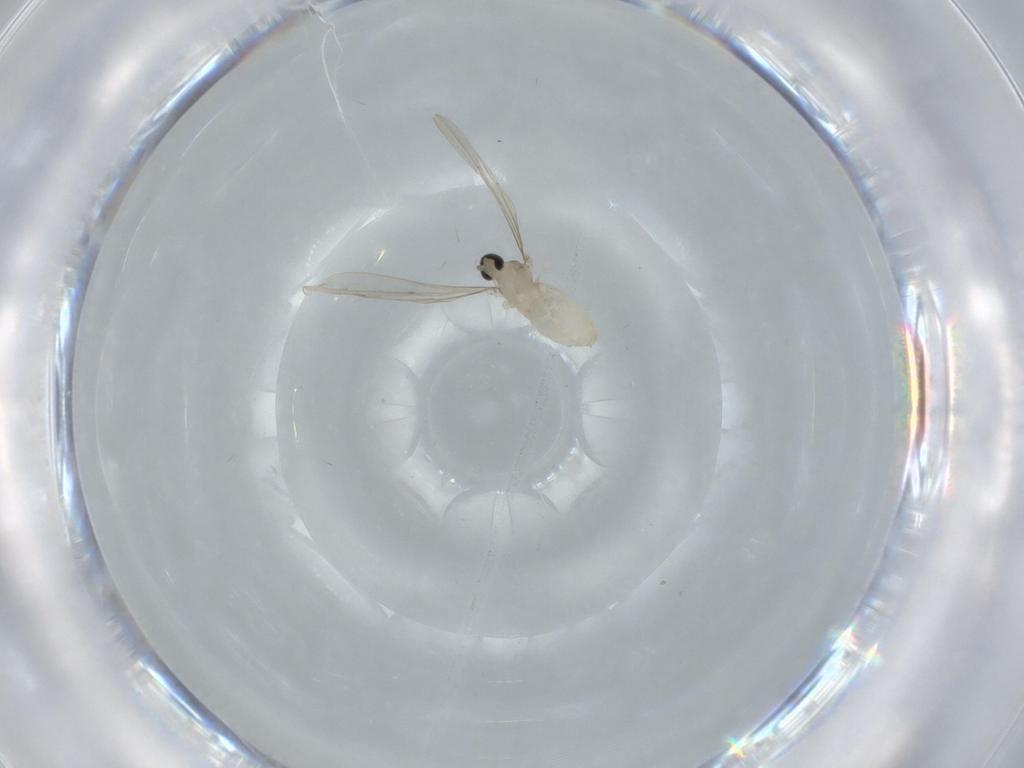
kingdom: Animalia
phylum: Arthropoda
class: Insecta
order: Diptera
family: Sciaridae
